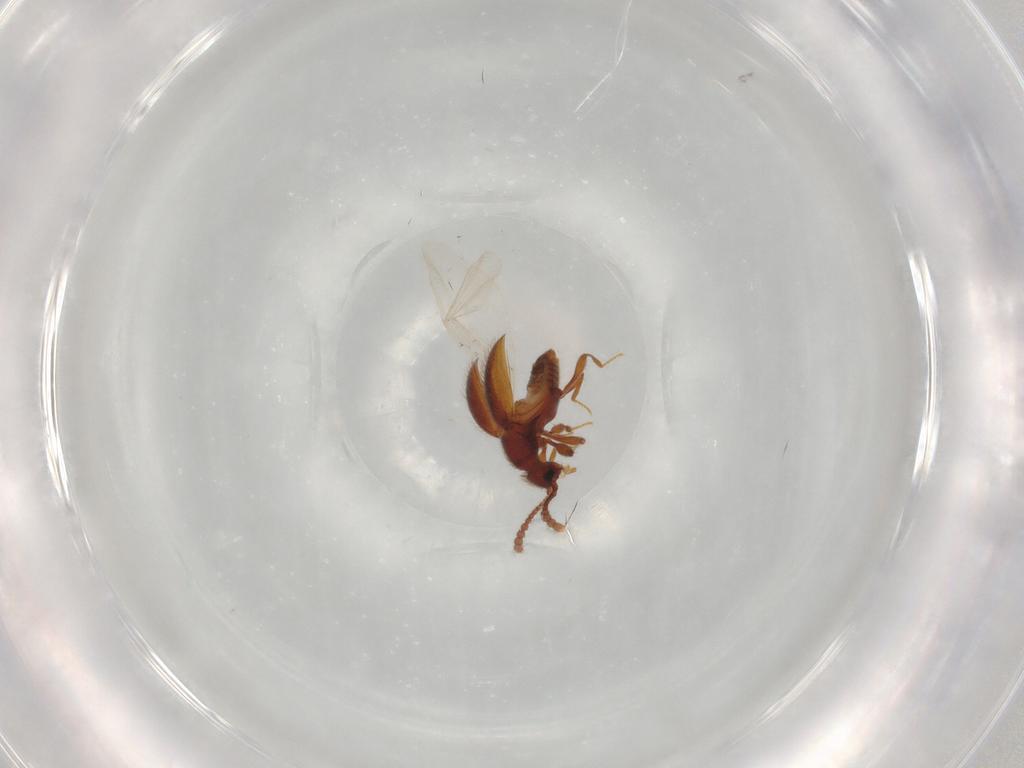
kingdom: Animalia
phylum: Arthropoda
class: Insecta
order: Coleoptera
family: Staphylinidae
